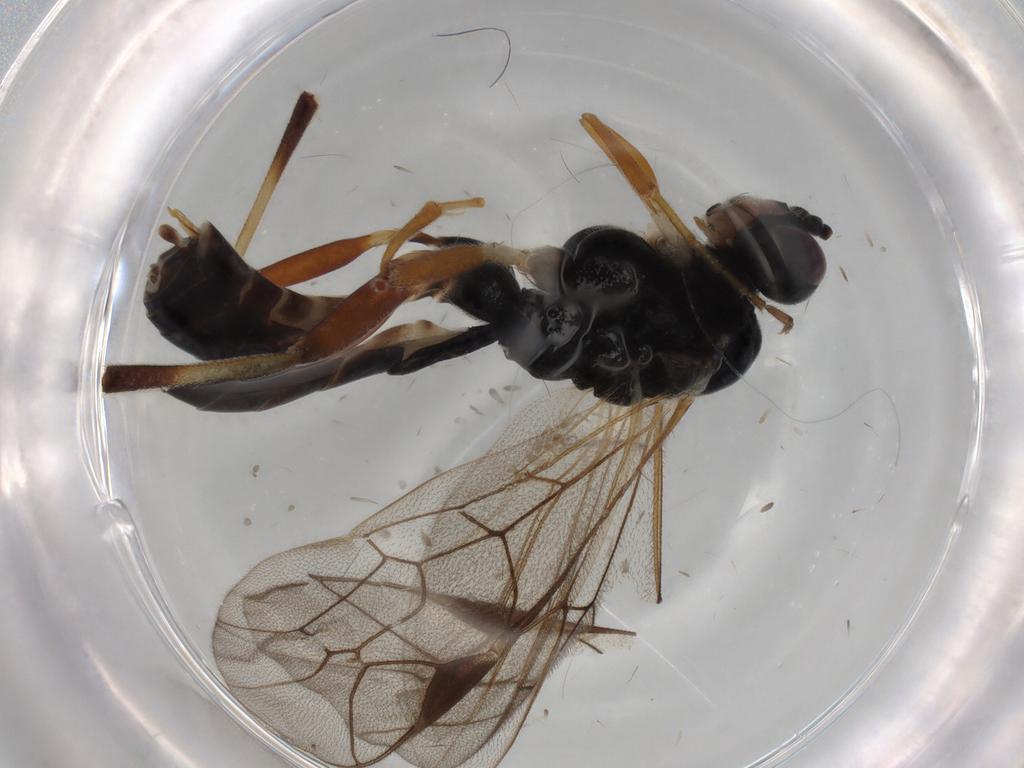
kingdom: Animalia
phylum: Arthropoda
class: Insecta
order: Hymenoptera
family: Ichneumonidae
